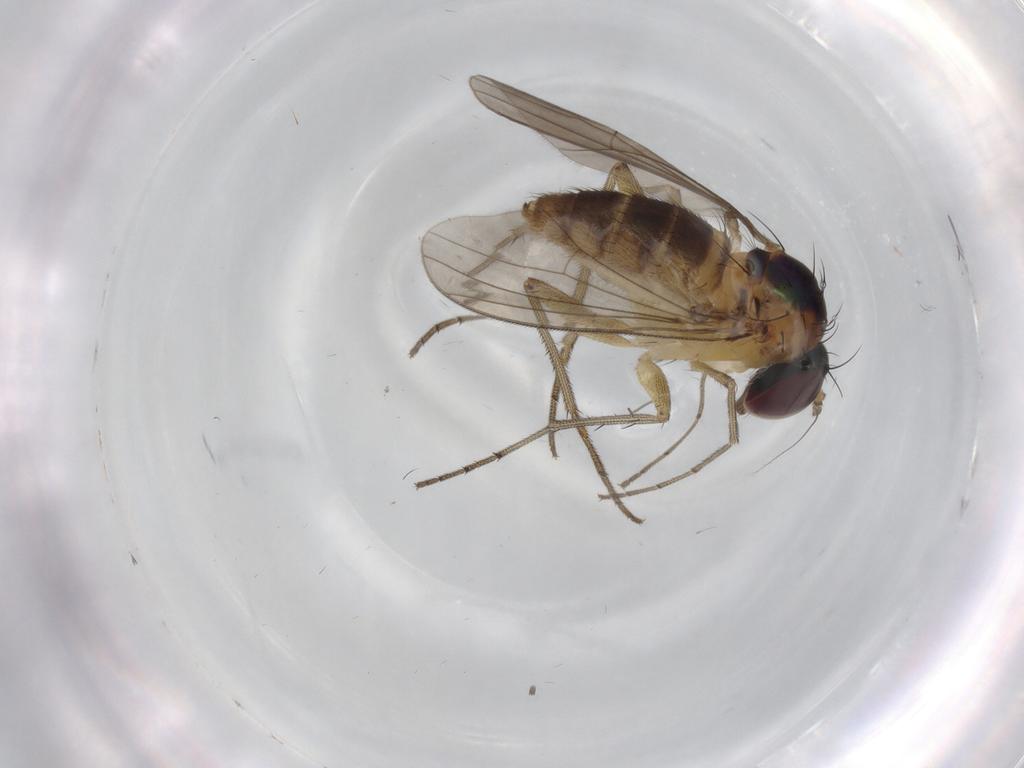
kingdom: Animalia
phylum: Arthropoda
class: Insecta
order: Diptera
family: Dolichopodidae
